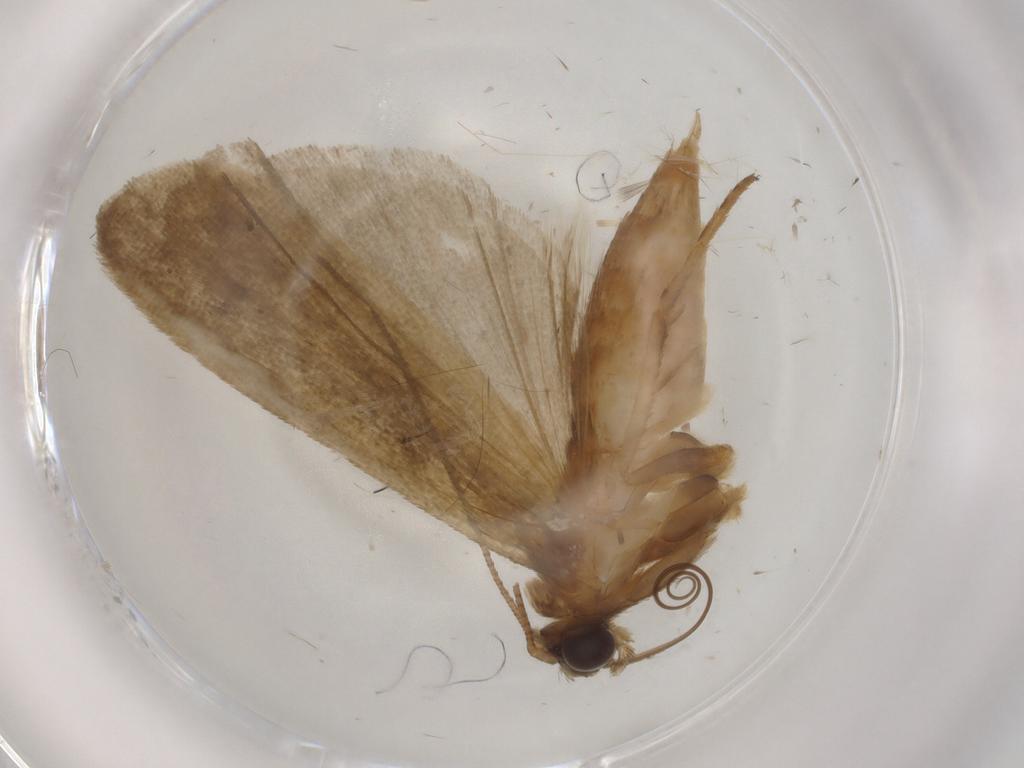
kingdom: Animalia
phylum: Arthropoda
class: Insecta
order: Lepidoptera
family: Noctuidae
